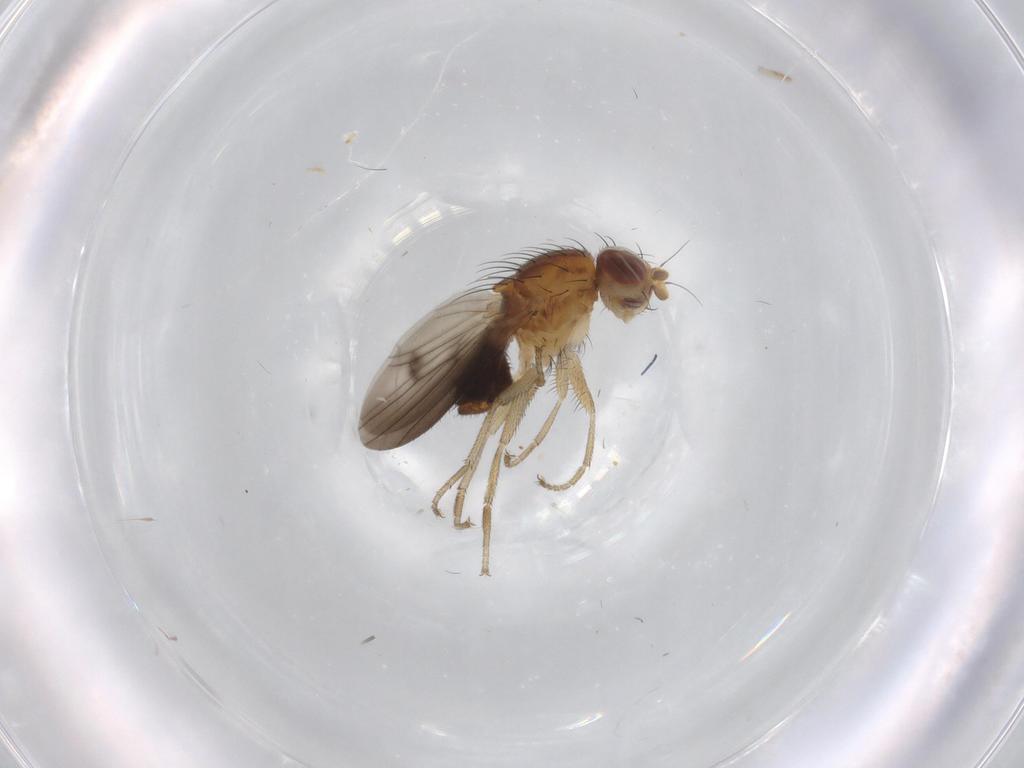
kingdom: Animalia
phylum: Arthropoda
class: Insecta
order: Diptera
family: Heleomyzidae
